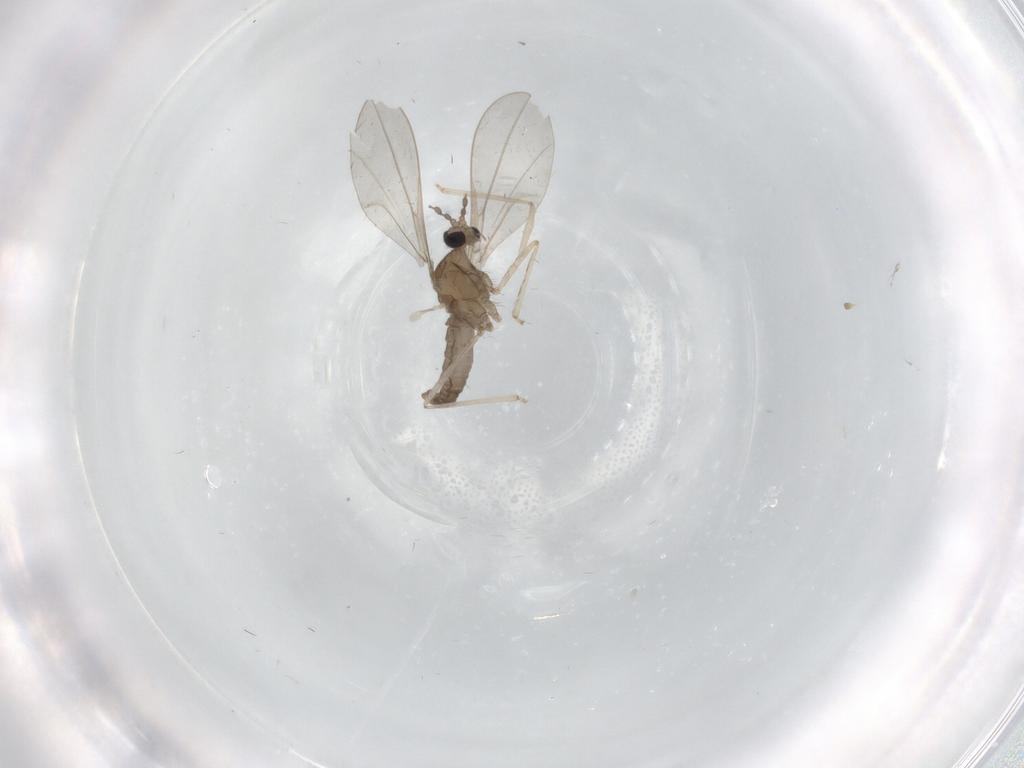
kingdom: Animalia
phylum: Arthropoda
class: Insecta
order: Diptera
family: Cecidomyiidae
